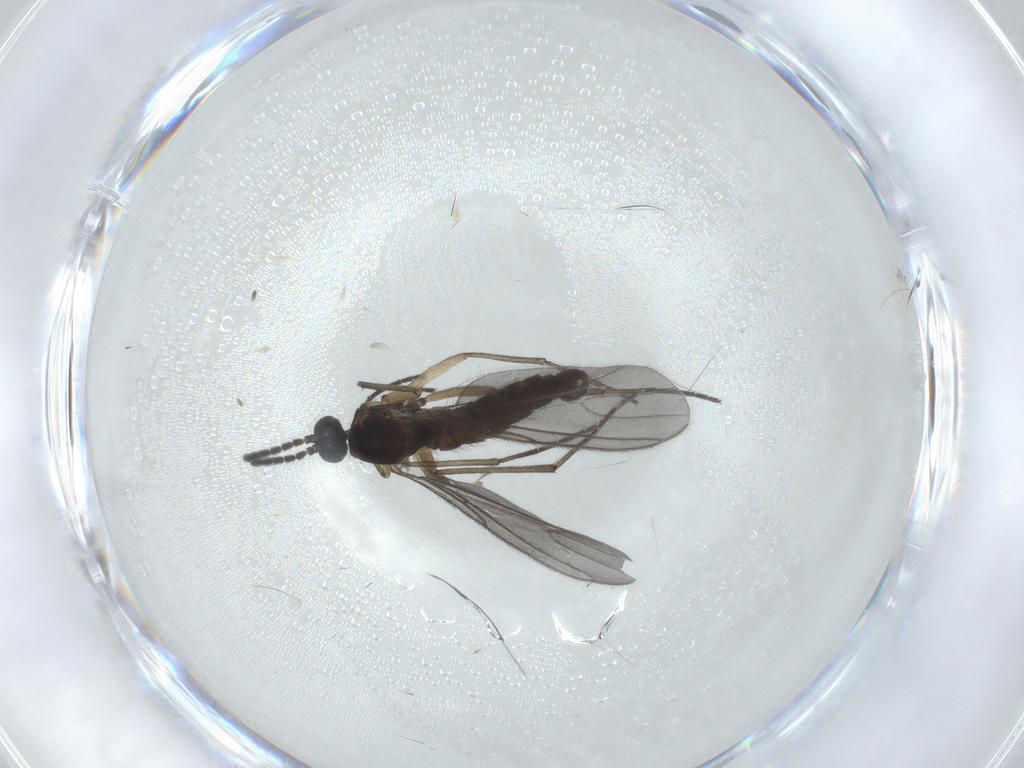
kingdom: Animalia
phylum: Arthropoda
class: Insecta
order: Diptera
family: Sciaridae
